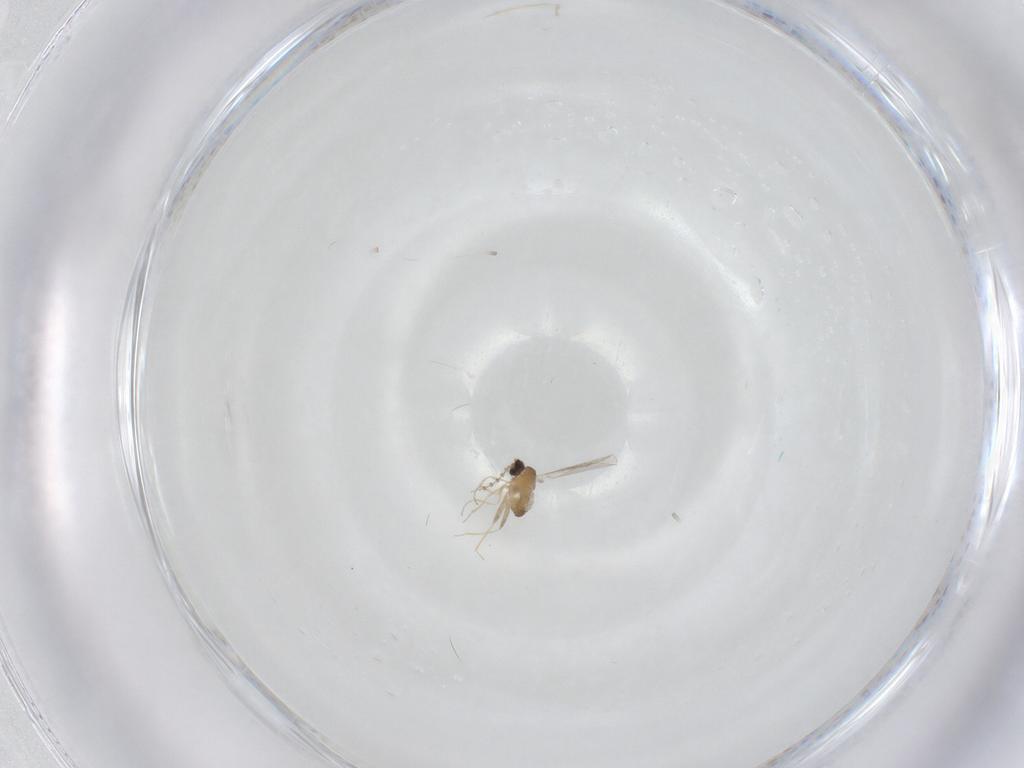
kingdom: Animalia
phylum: Arthropoda
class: Insecta
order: Diptera
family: Cecidomyiidae
